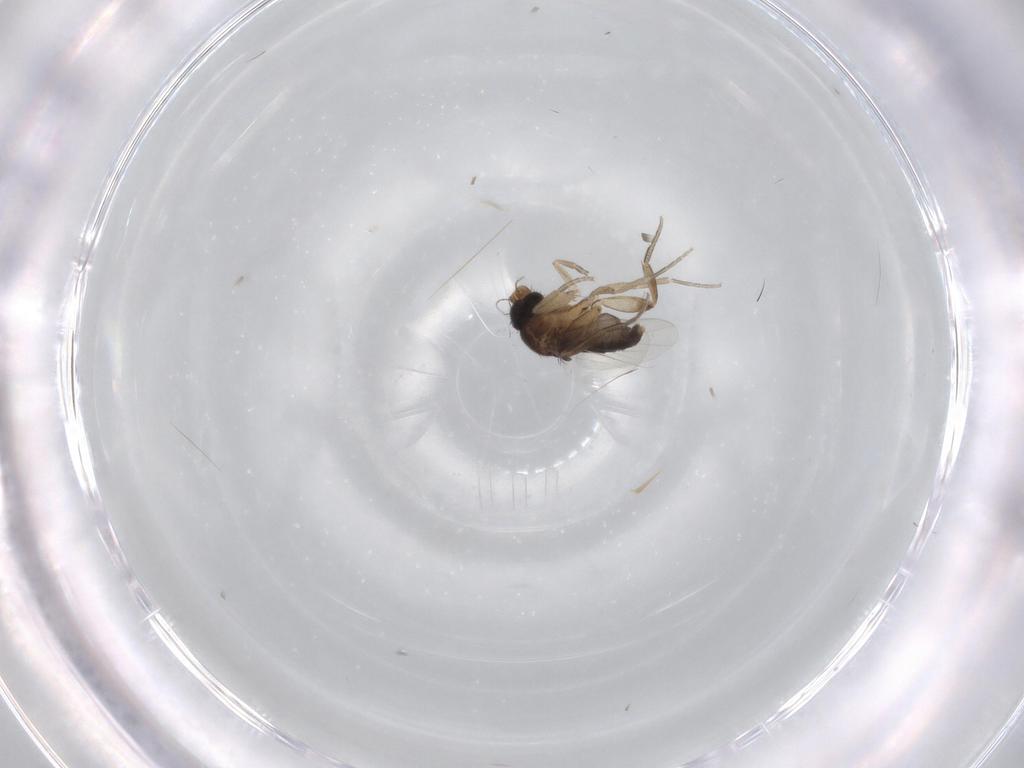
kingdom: Animalia
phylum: Arthropoda
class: Insecta
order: Diptera
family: Phoridae
